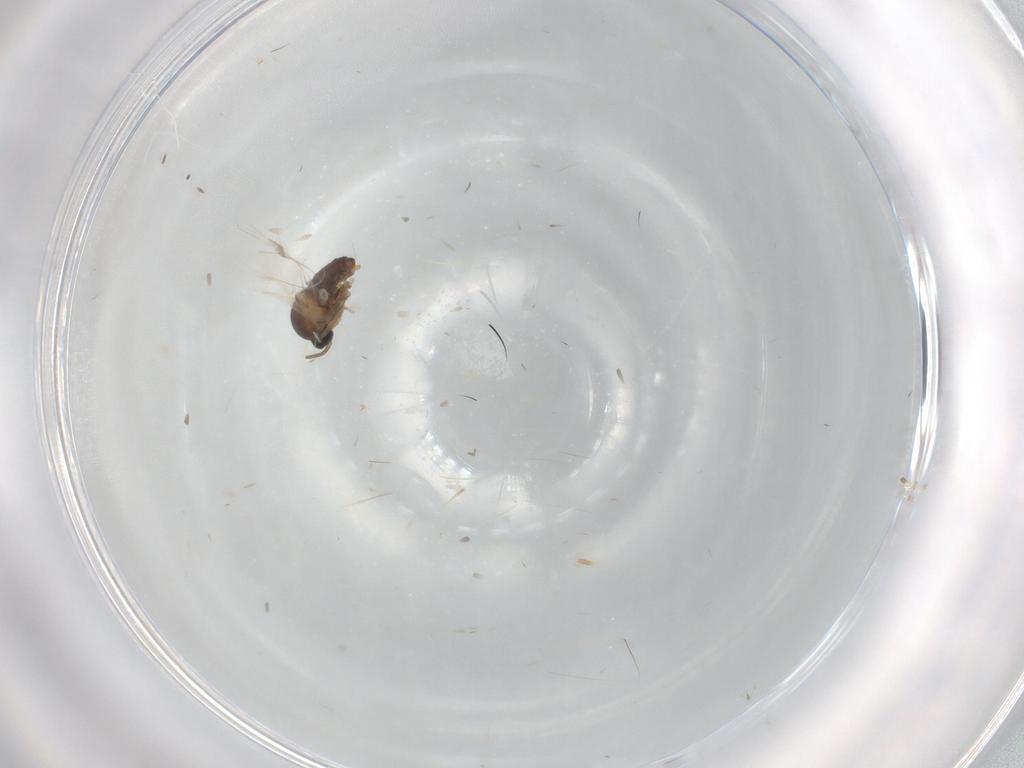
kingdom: Animalia
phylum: Arthropoda
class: Insecta
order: Diptera
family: Cecidomyiidae
